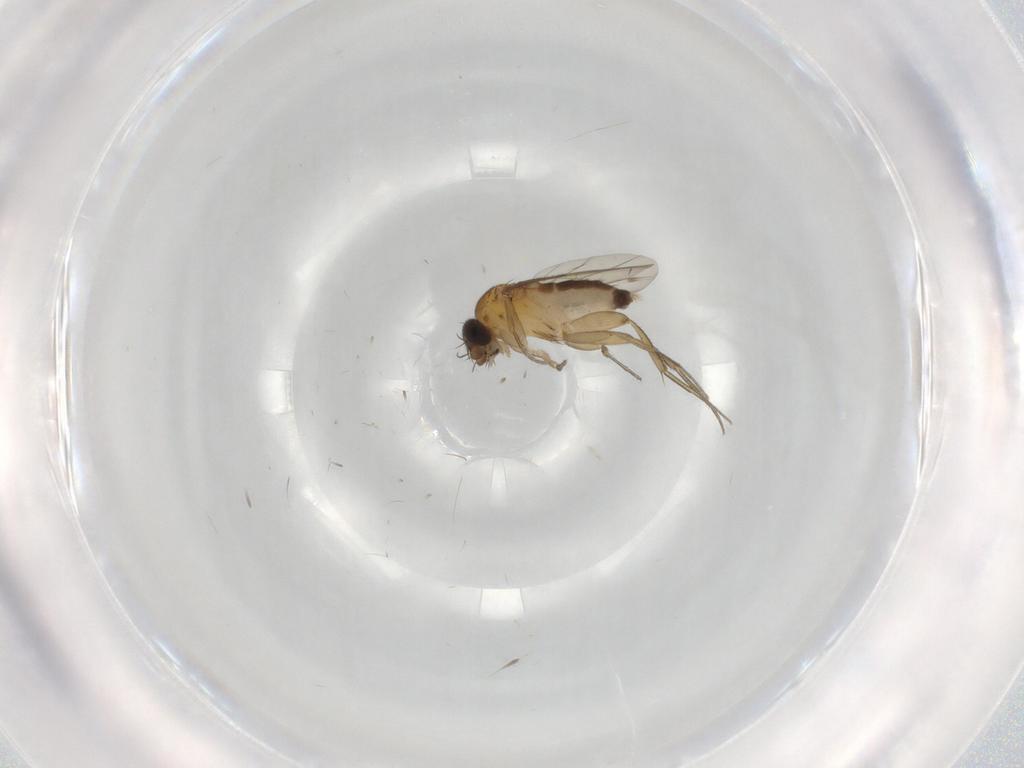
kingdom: Animalia
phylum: Arthropoda
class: Insecta
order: Diptera
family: Phoridae
